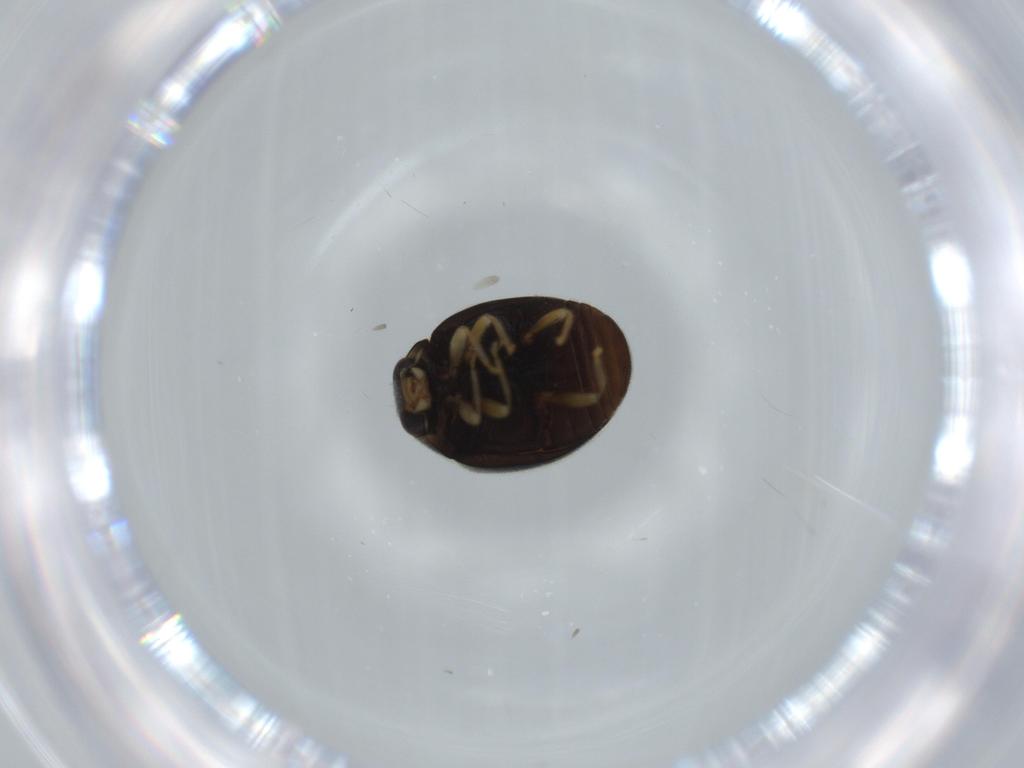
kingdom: Animalia
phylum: Arthropoda
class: Insecta
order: Coleoptera
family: Coccinellidae
